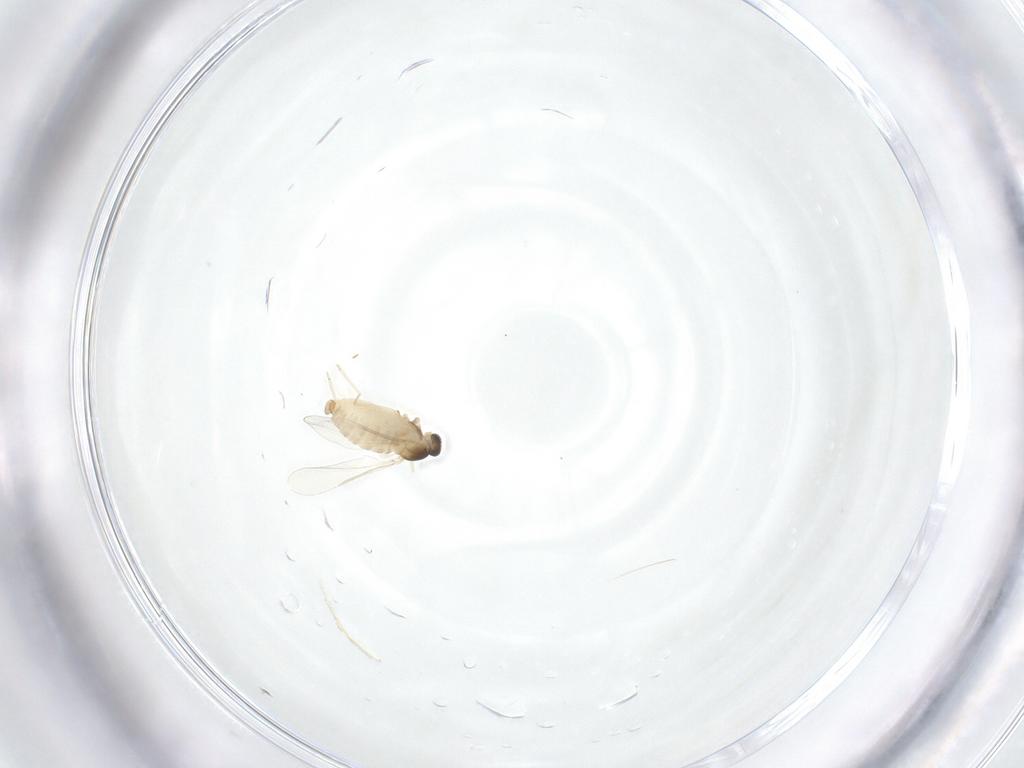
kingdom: Animalia
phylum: Arthropoda
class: Insecta
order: Diptera
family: Cecidomyiidae
